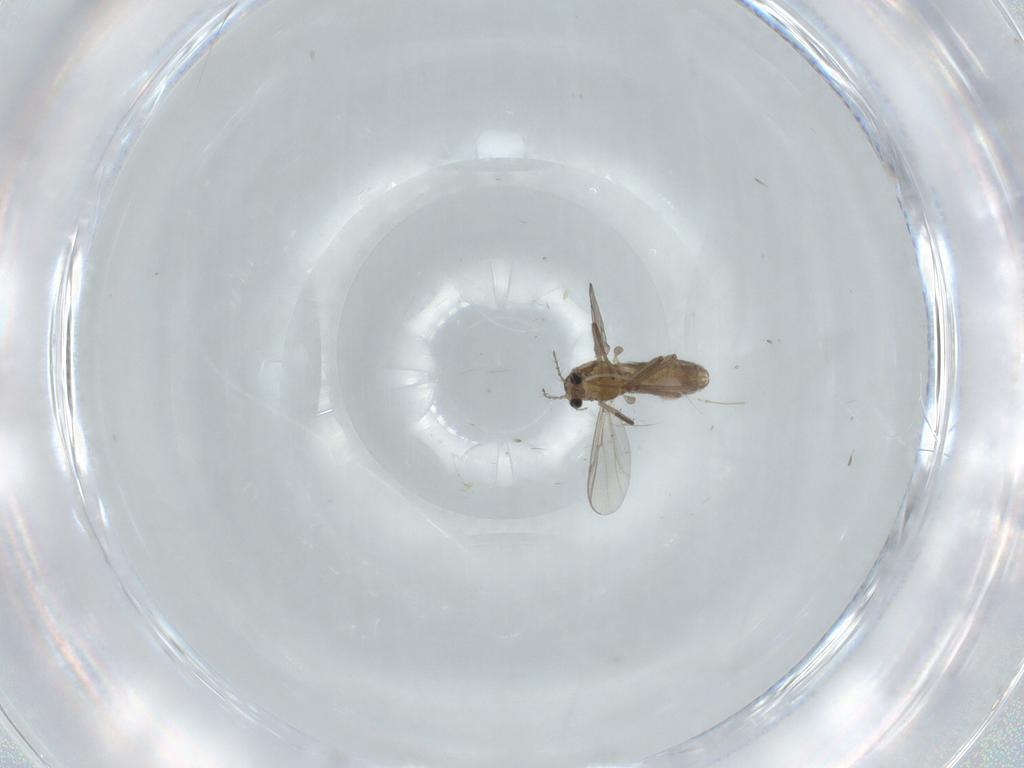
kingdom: Animalia
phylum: Arthropoda
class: Insecta
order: Diptera
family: Chironomidae
